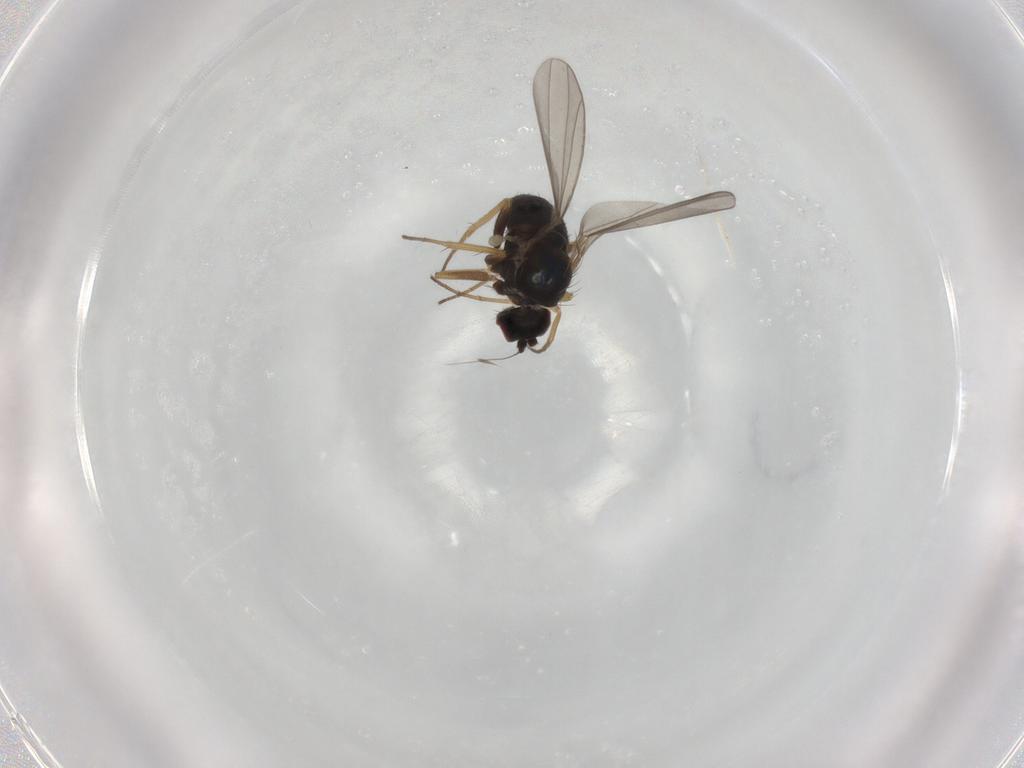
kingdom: Animalia
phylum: Arthropoda
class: Insecta
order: Diptera
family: Dolichopodidae
